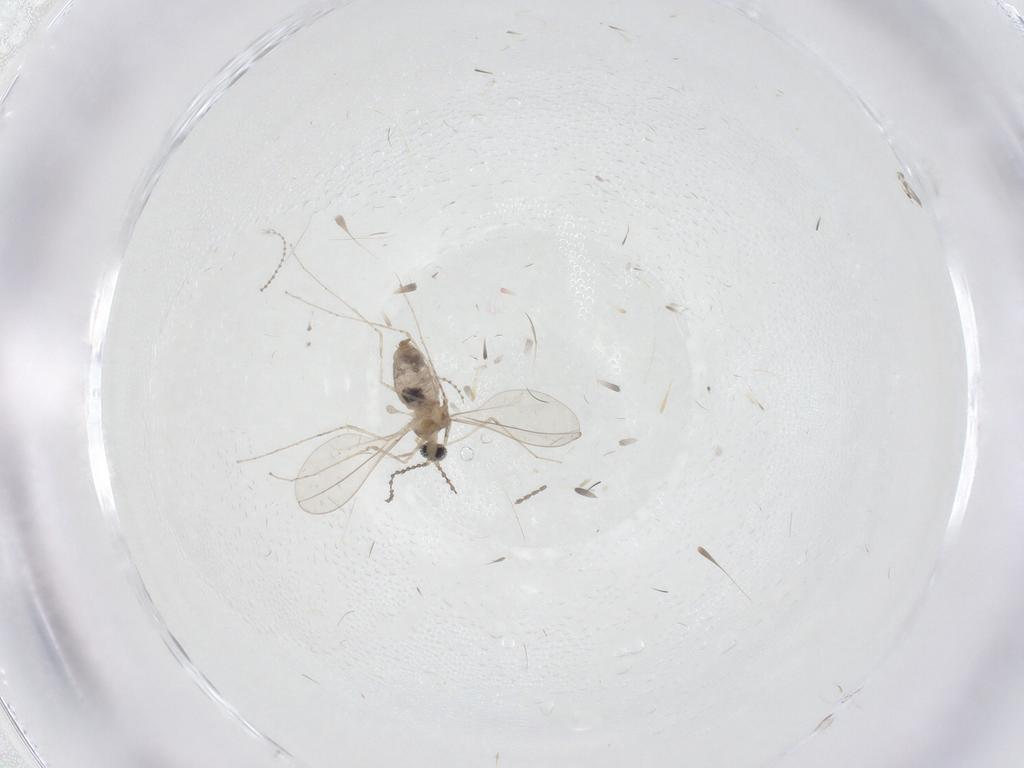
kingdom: Animalia
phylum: Arthropoda
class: Insecta
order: Diptera
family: Cecidomyiidae
